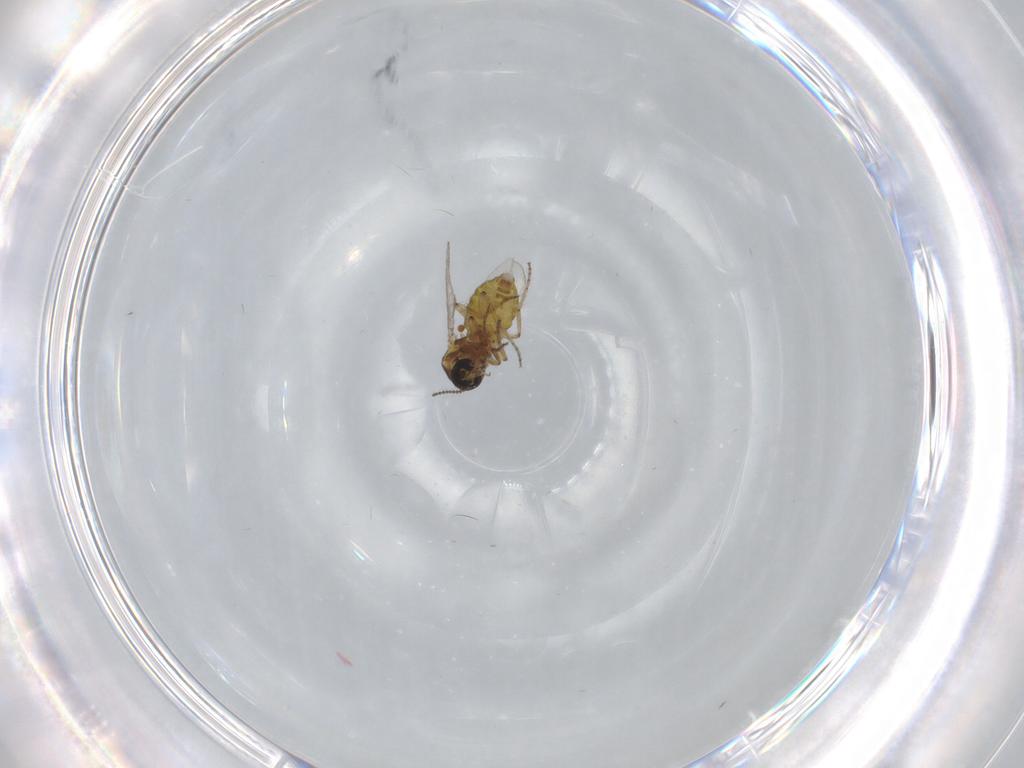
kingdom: Animalia
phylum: Arthropoda
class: Insecta
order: Diptera
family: Ceratopogonidae
